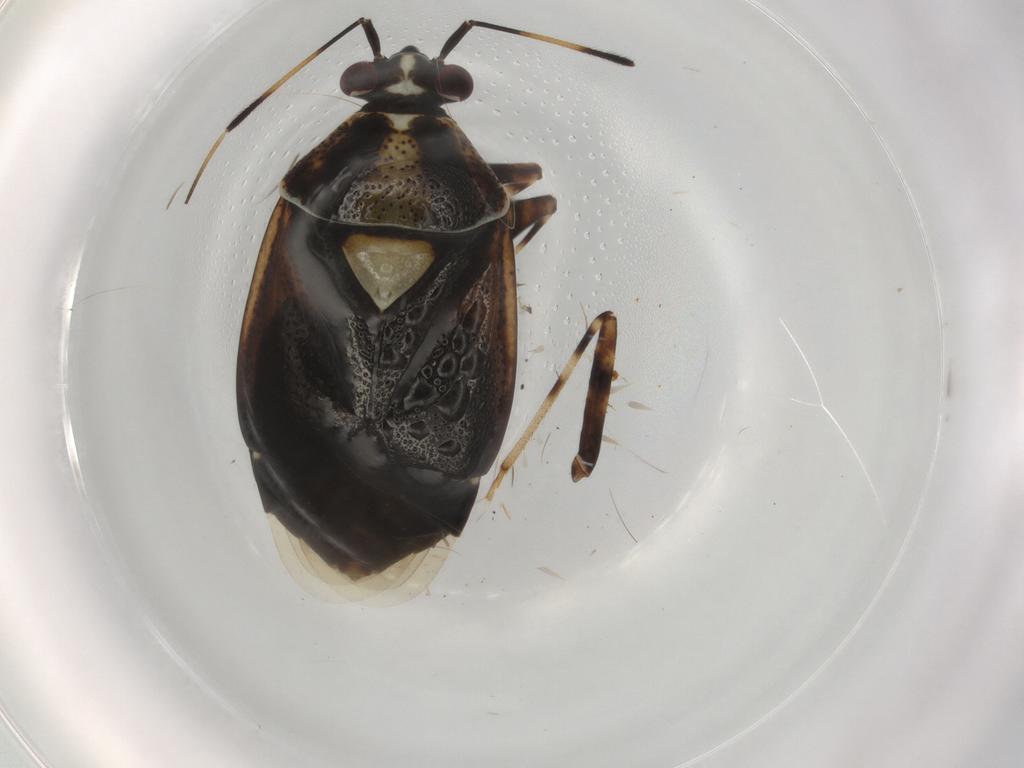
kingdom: Animalia
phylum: Arthropoda
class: Insecta
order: Hemiptera
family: Miridae
